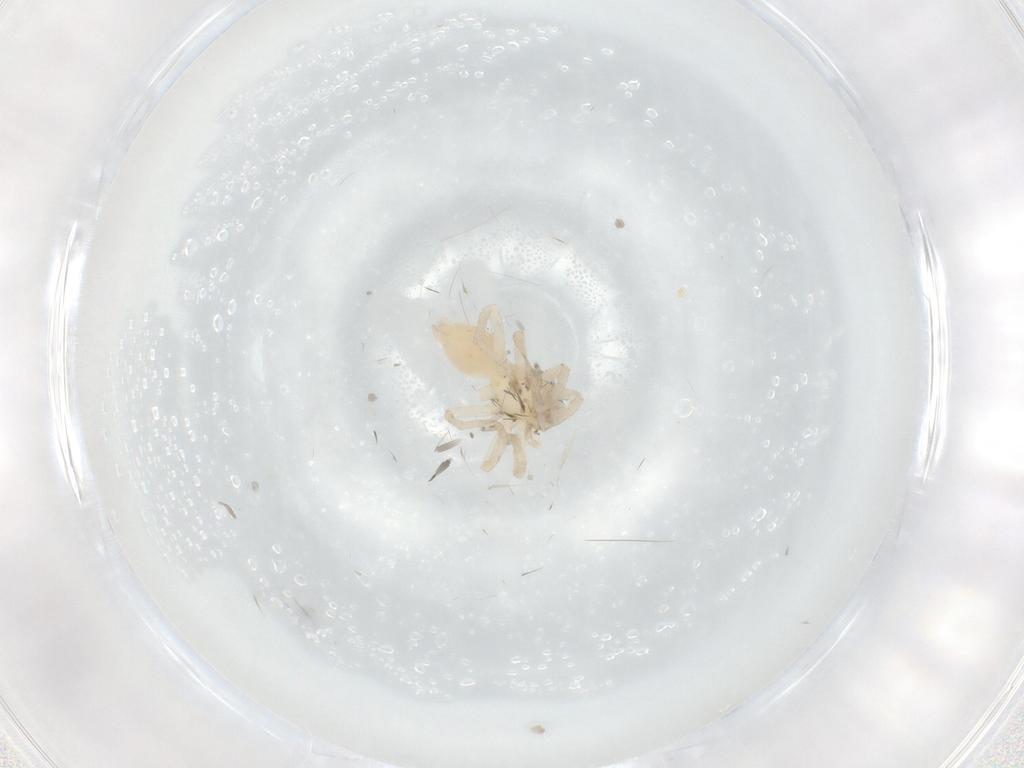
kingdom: Animalia
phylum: Arthropoda
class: Arachnida
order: Araneae
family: Clubionidae
